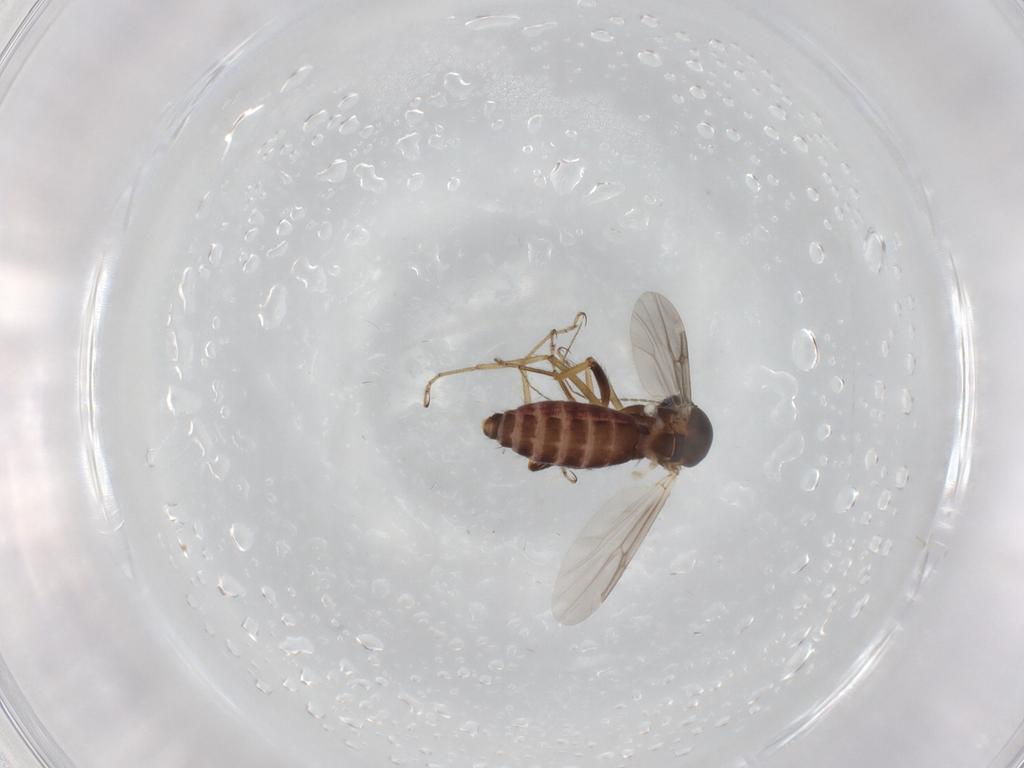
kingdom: Animalia
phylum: Arthropoda
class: Insecta
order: Diptera
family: Ceratopogonidae
